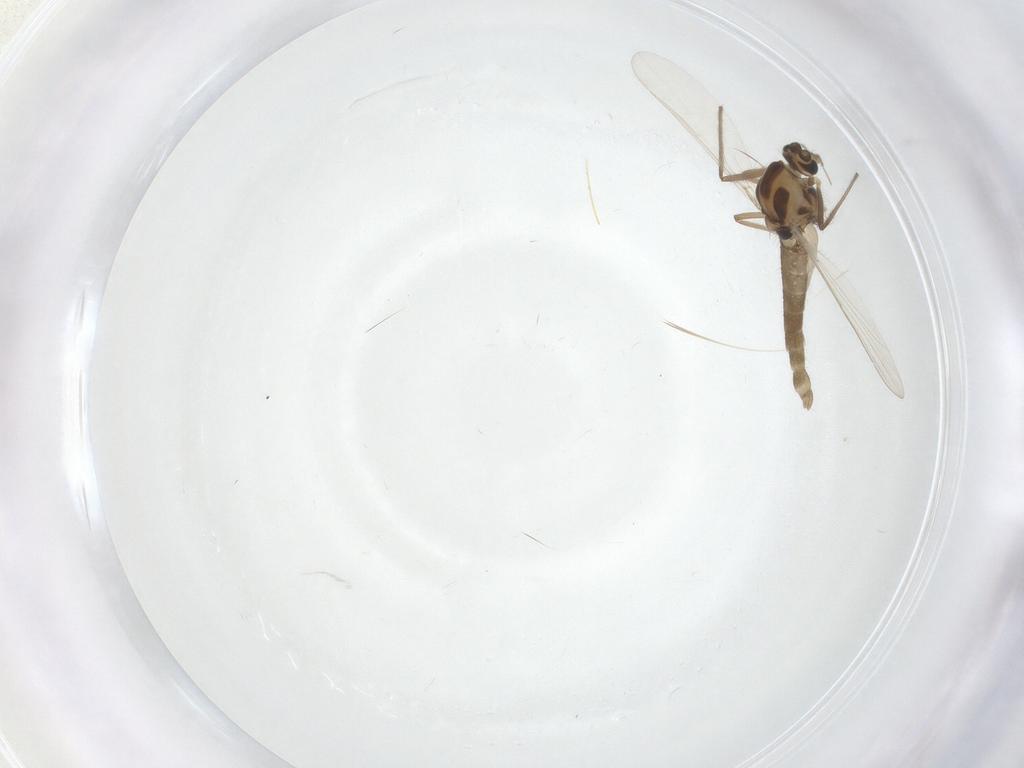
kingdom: Animalia
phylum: Arthropoda
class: Insecta
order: Diptera
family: Chironomidae
